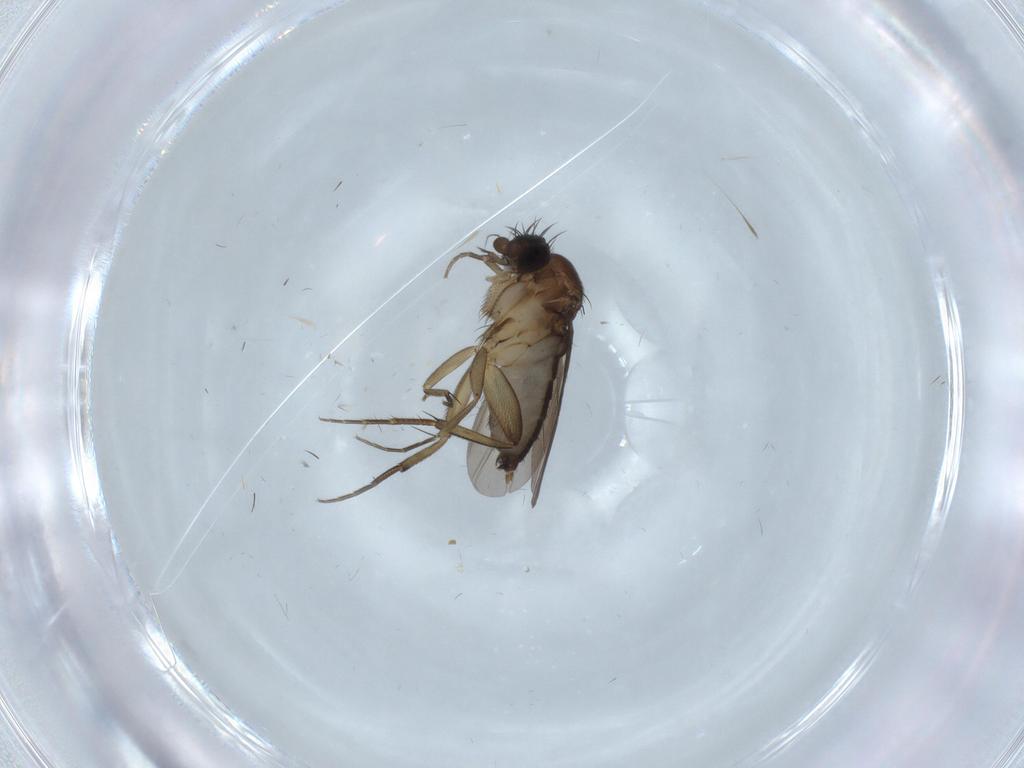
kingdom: Animalia
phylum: Arthropoda
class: Insecta
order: Diptera
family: Phoridae
